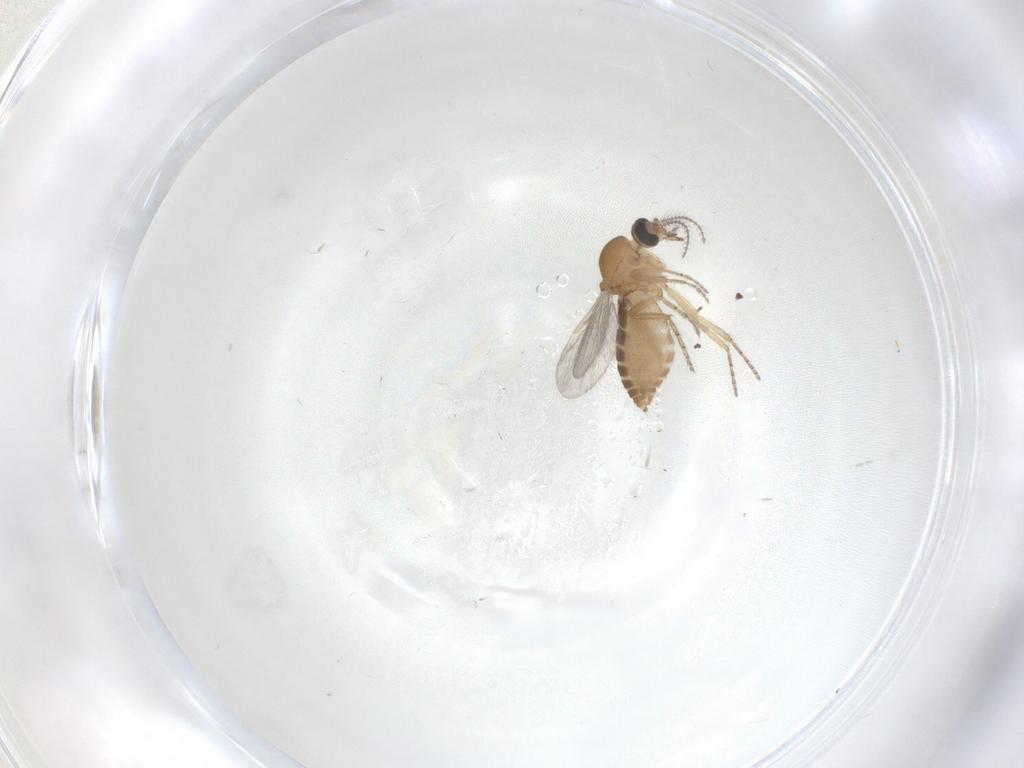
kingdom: Animalia
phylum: Arthropoda
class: Insecta
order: Diptera
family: Ceratopogonidae
